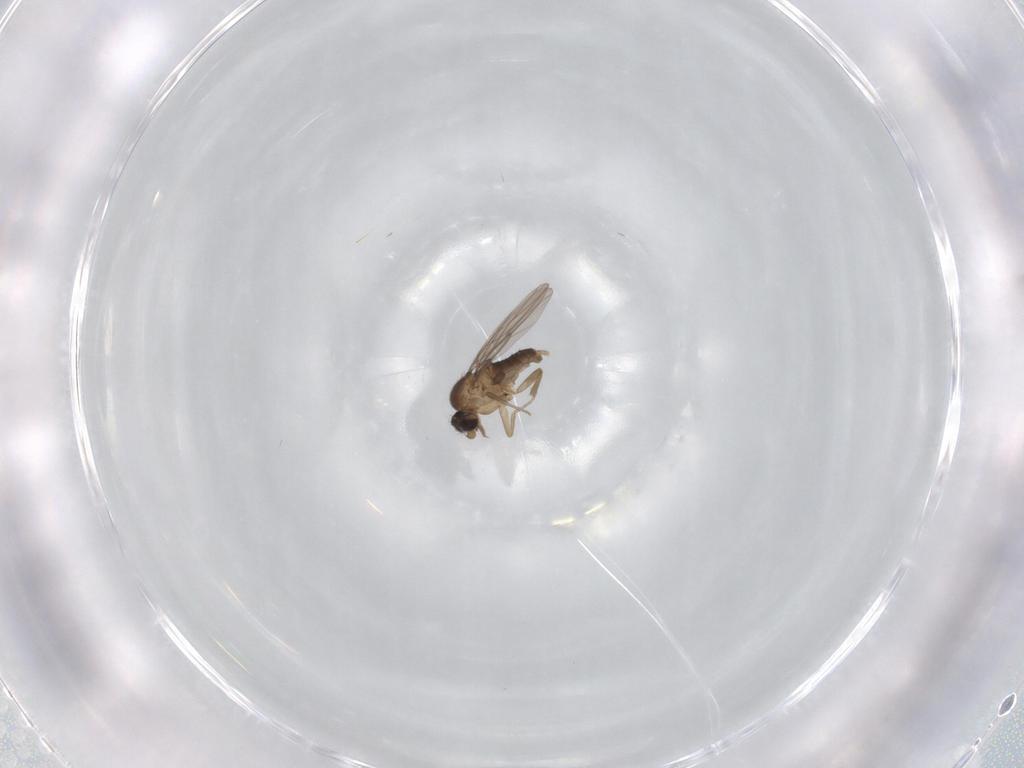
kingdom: Animalia
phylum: Arthropoda
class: Insecta
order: Diptera
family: Phoridae
